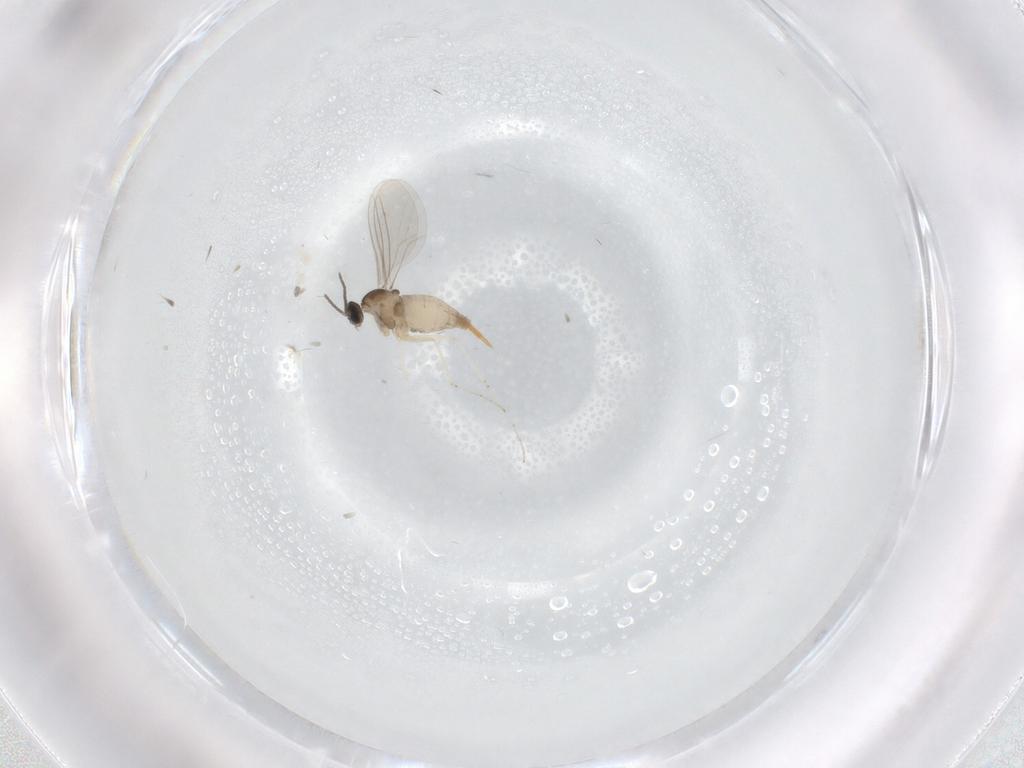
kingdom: Animalia
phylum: Arthropoda
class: Insecta
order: Diptera
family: Cecidomyiidae
